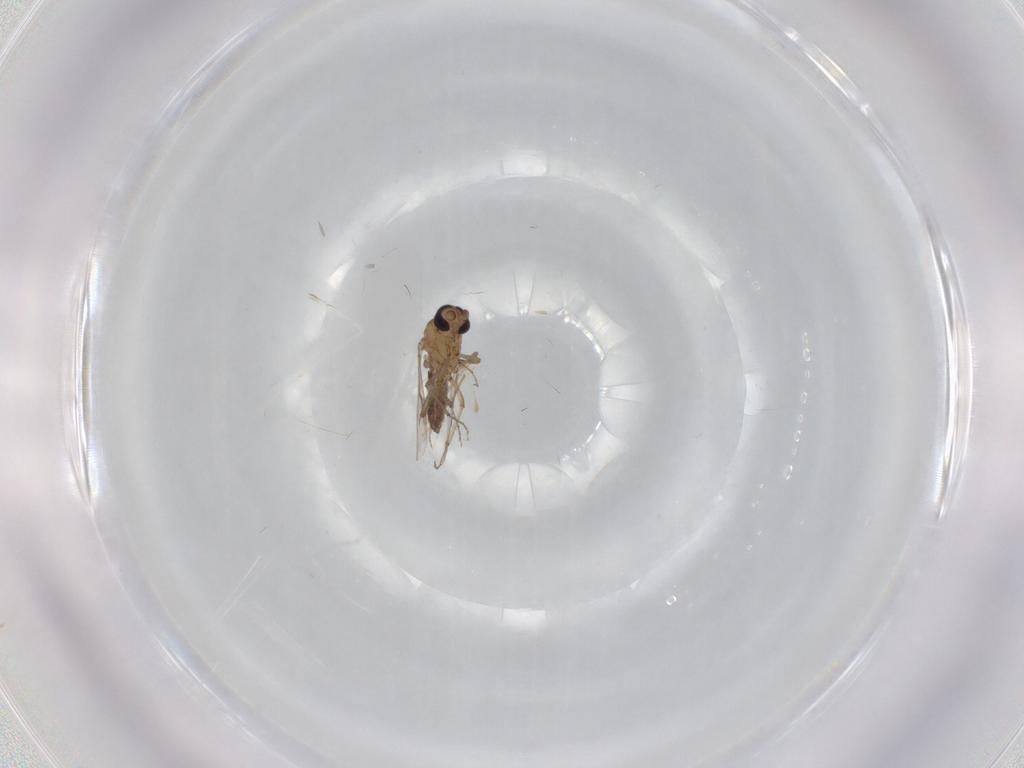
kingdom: Animalia
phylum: Arthropoda
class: Insecta
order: Diptera
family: Cecidomyiidae
